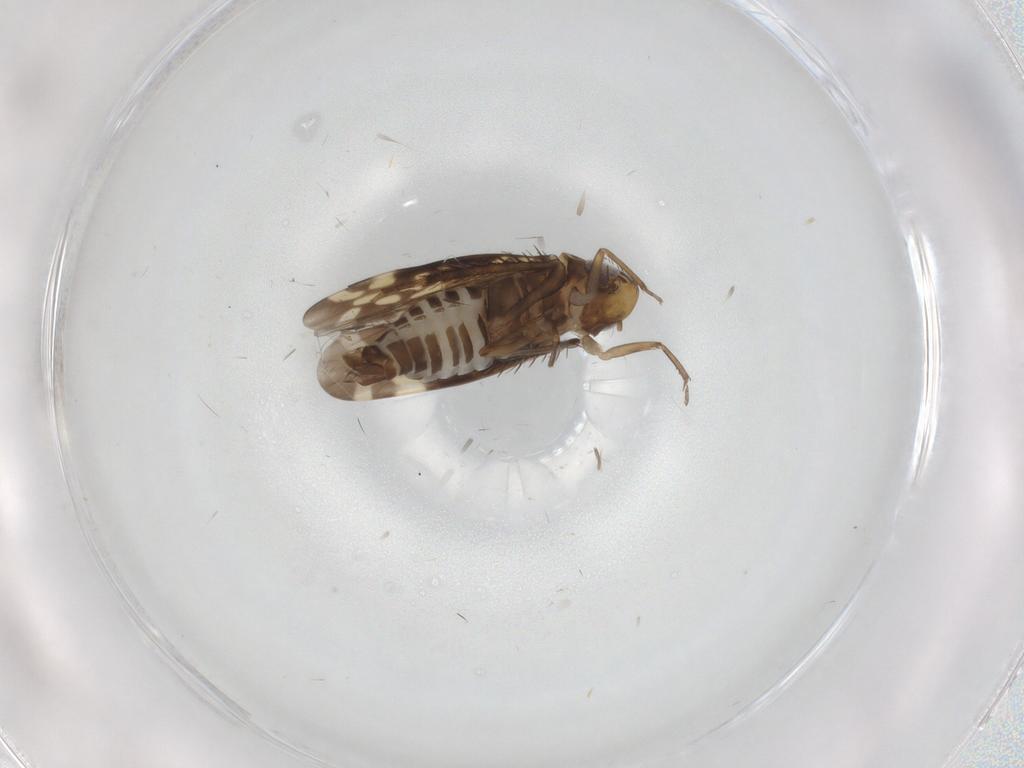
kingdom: Animalia
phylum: Arthropoda
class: Insecta
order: Hemiptera
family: Cicadellidae
